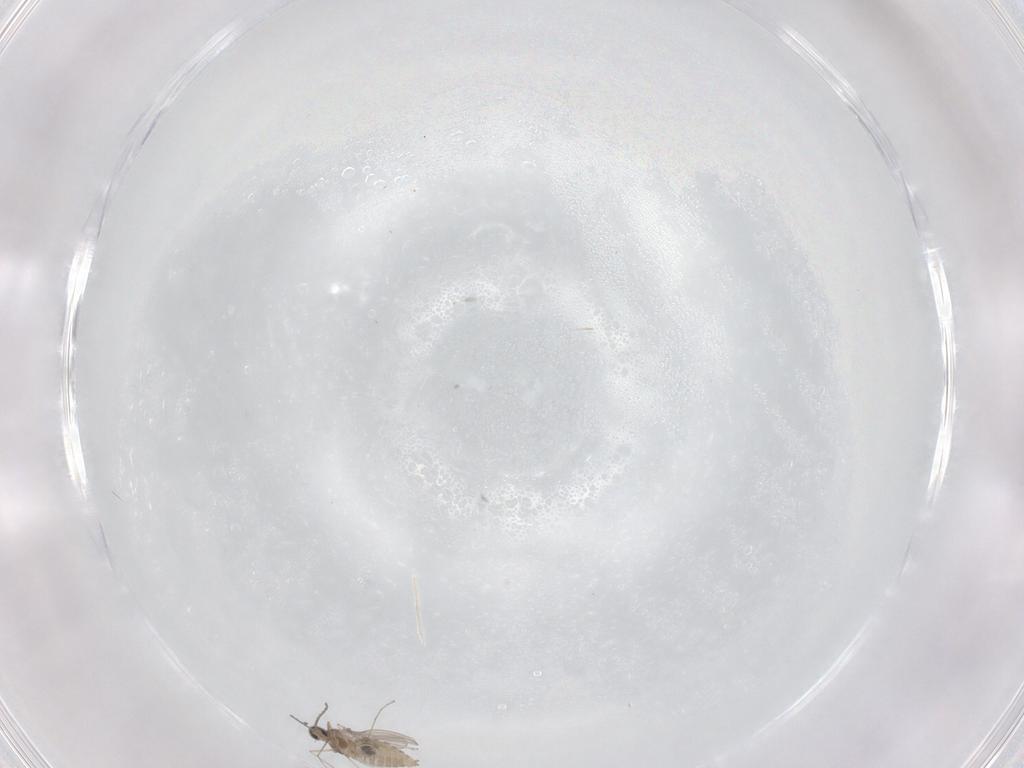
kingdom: Animalia
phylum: Arthropoda
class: Insecta
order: Diptera
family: Cecidomyiidae
